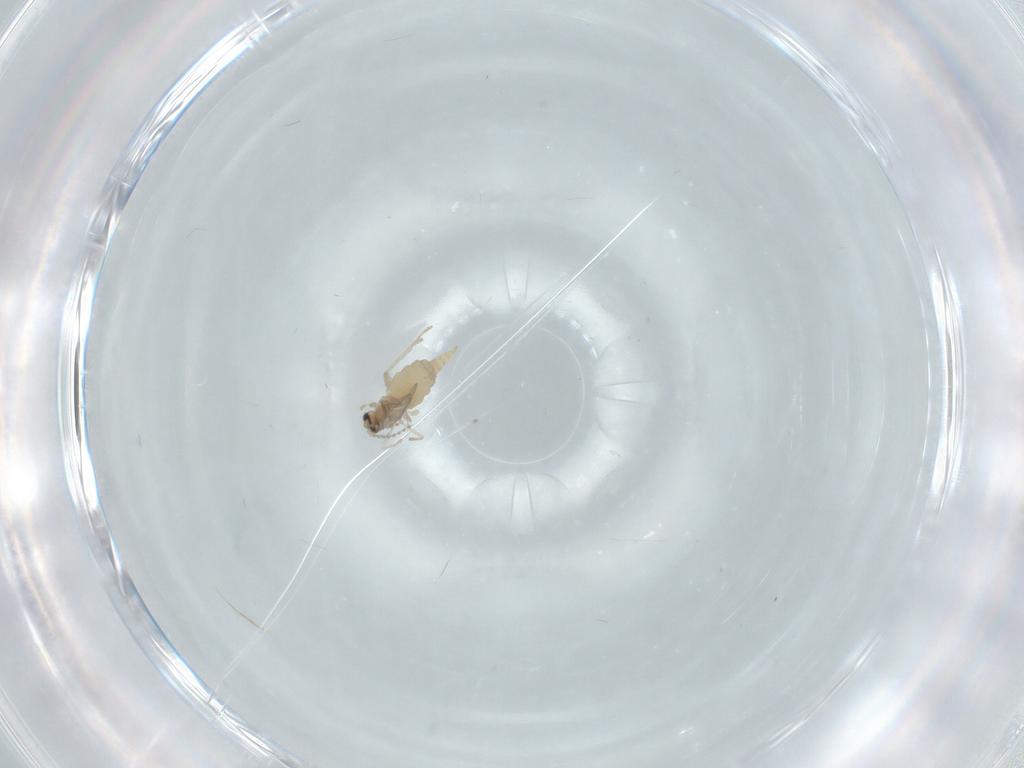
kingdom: Animalia
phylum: Arthropoda
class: Insecta
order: Diptera
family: Cecidomyiidae
